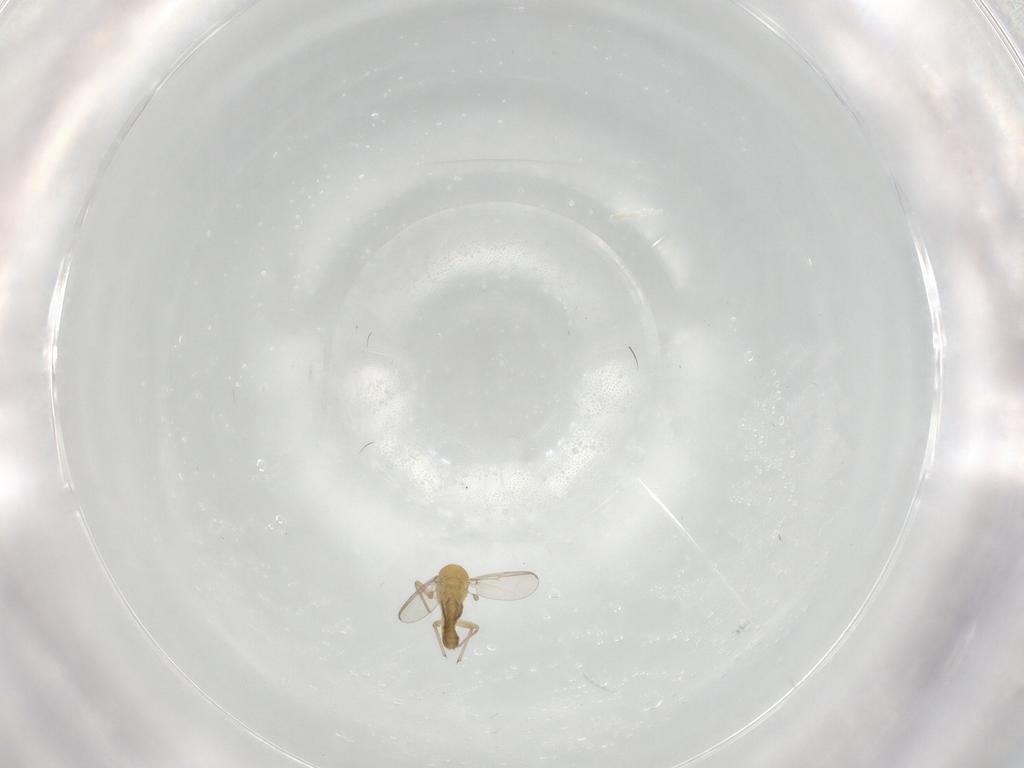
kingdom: Animalia
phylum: Arthropoda
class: Insecta
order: Diptera
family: Chironomidae
